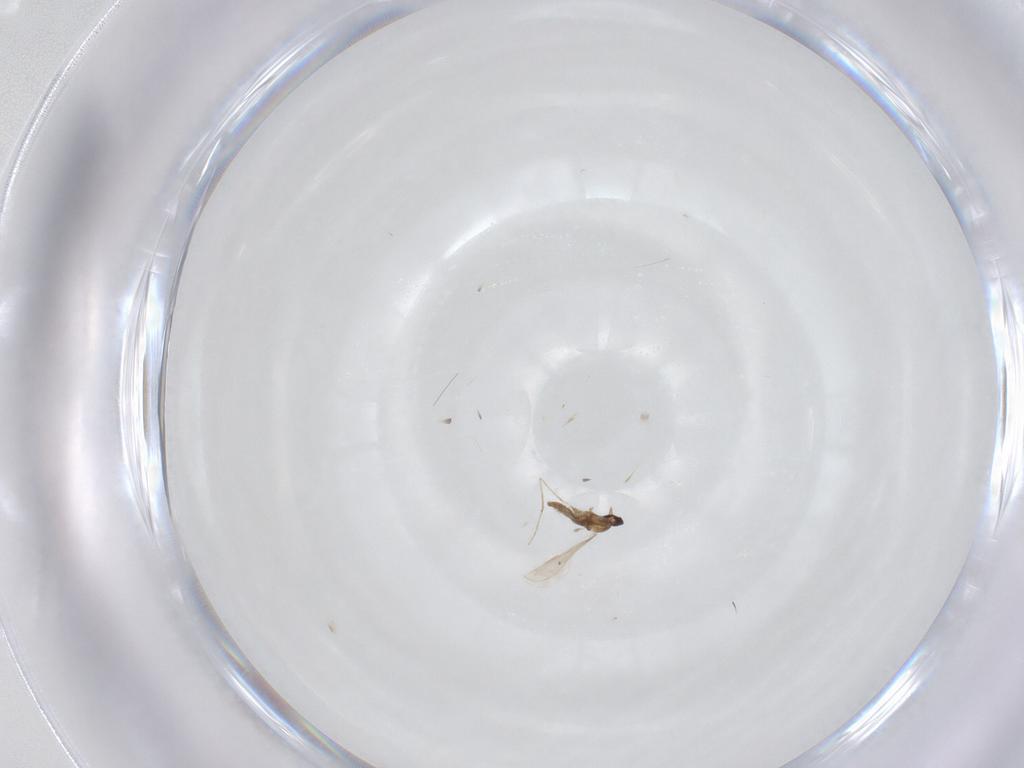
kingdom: Animalia
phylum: Arthropoda
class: Insecta
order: Diptera
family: Cecidomyiidae
